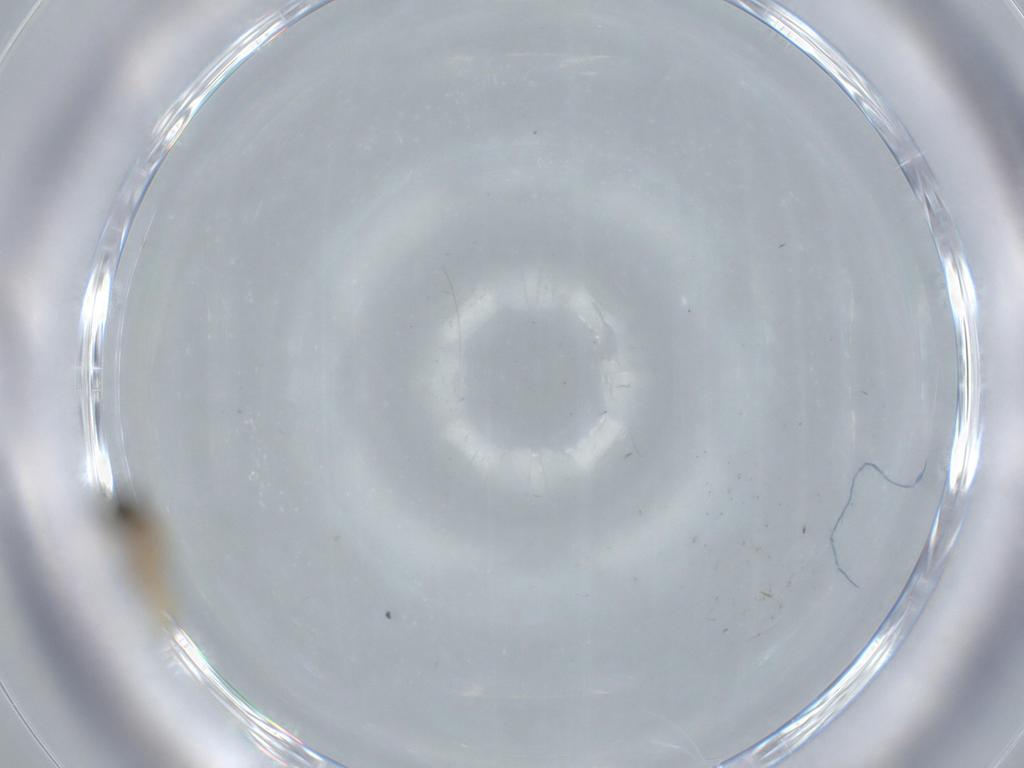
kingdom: Animalia
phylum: Arthropoda
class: Insecta
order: Diptera
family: Cecidomyiidae
